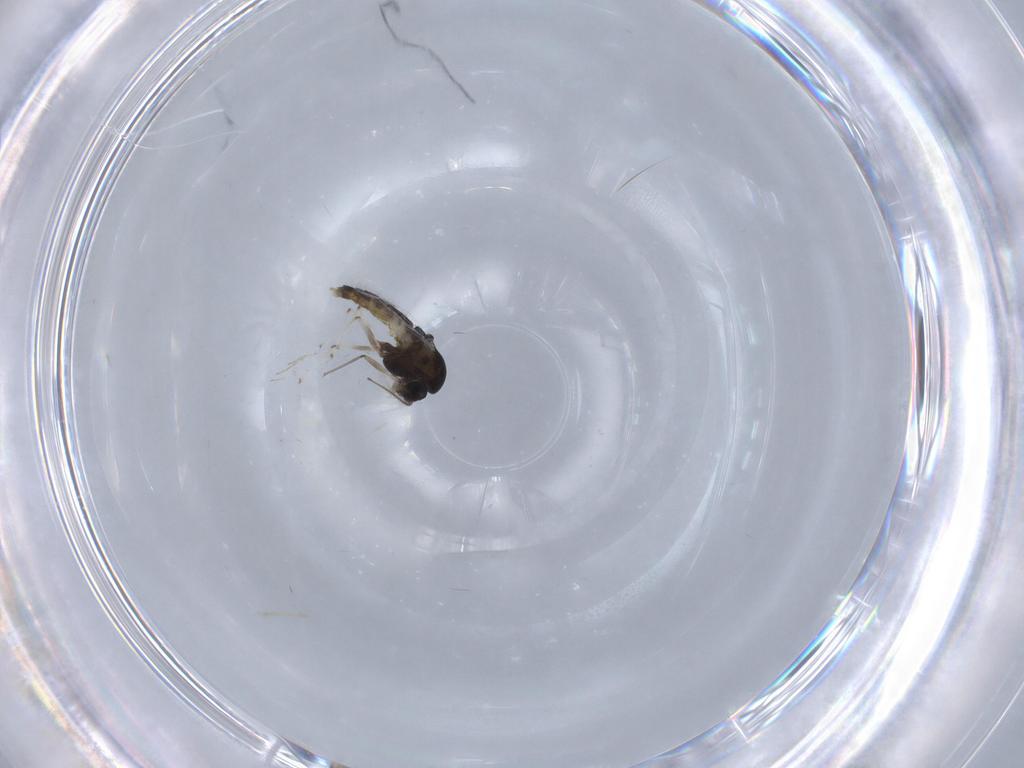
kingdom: Animalia
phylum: Arthropoda
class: Insecta
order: Diptera
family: Chironomidae
